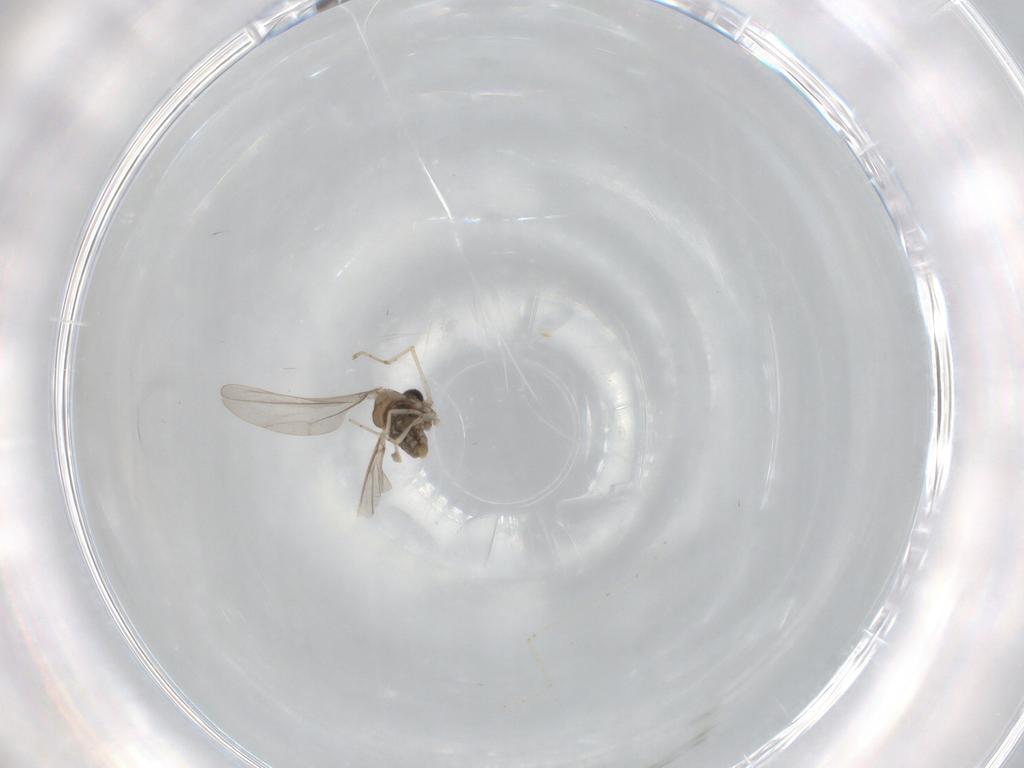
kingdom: Animalia
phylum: Arthropoda
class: Insecta
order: Diptera
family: Cecidomyiidae
